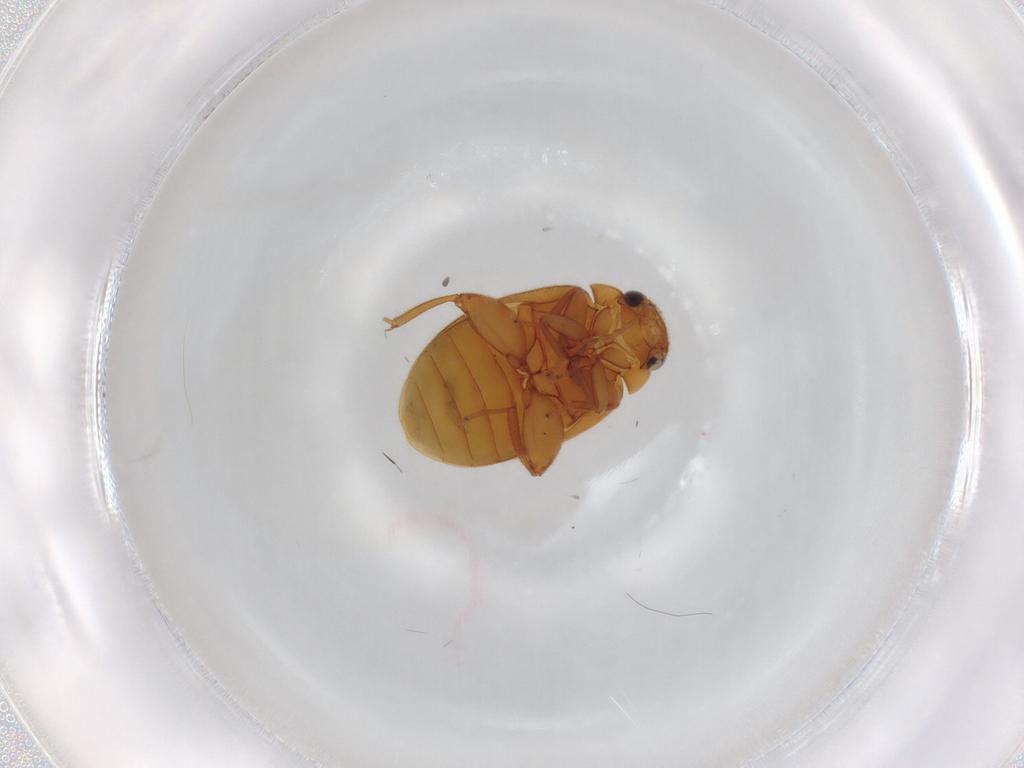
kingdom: Animalia
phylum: Arthropoda
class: Insecta
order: Coleoptera
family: Scirtidae
